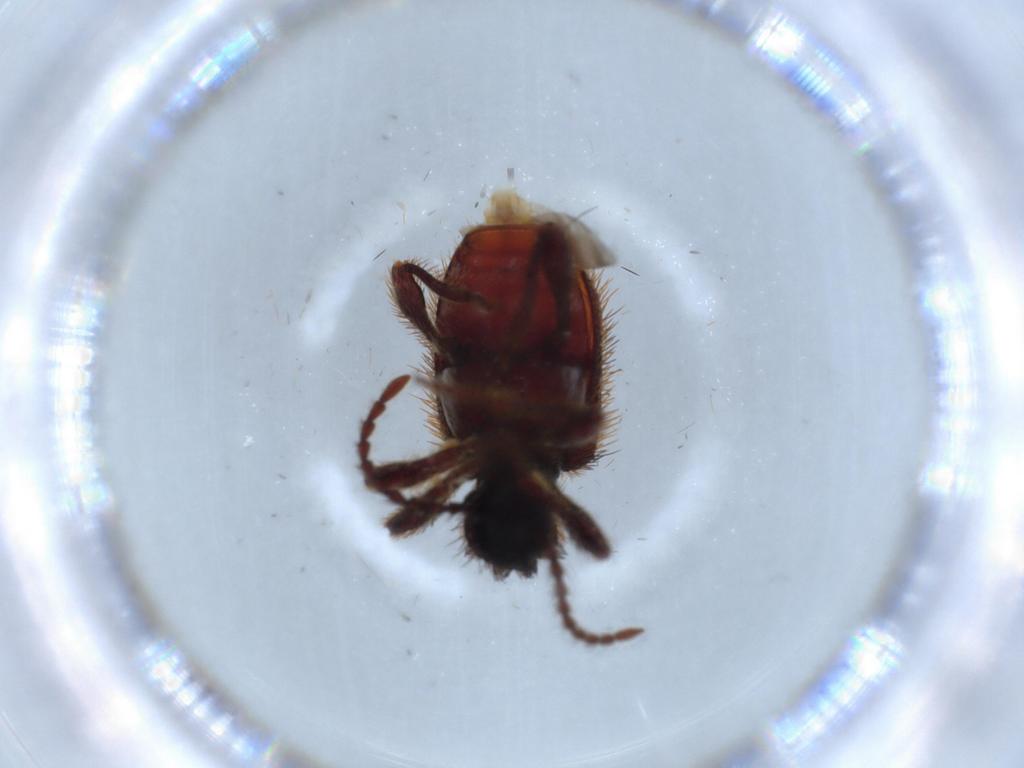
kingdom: Animalia
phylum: Arthropoda
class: Insecta
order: Coleoptera
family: Ptinidae
